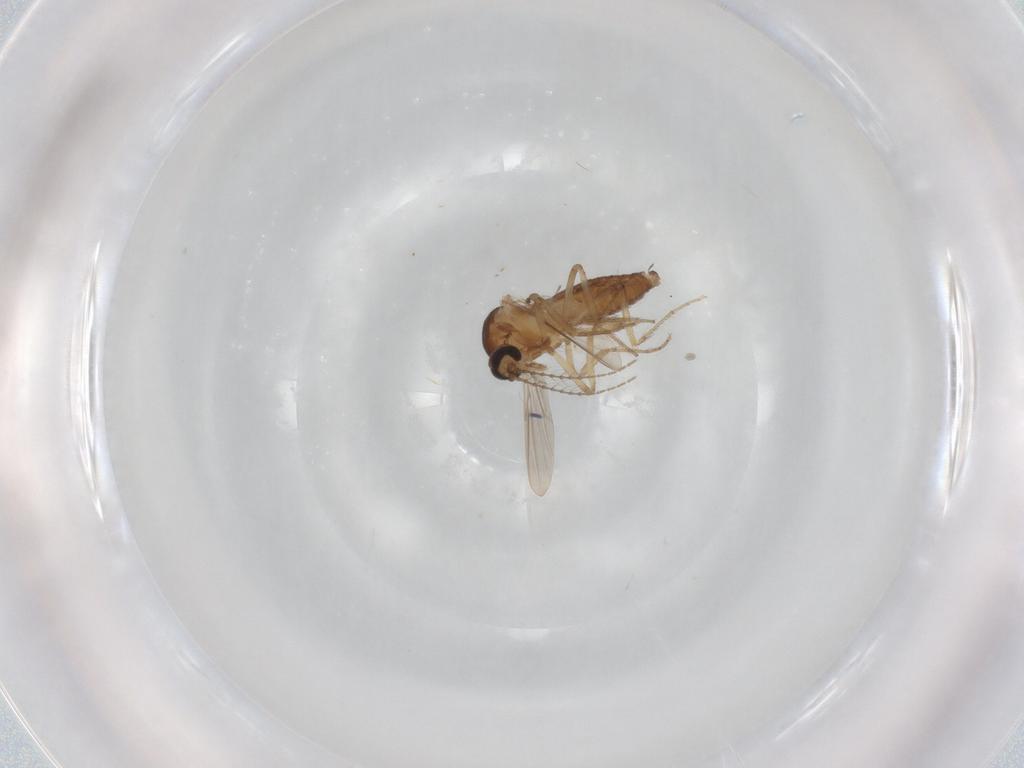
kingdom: Animalia
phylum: Arthropoda
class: Insecta
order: Diptera
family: Ceratopogonidae
